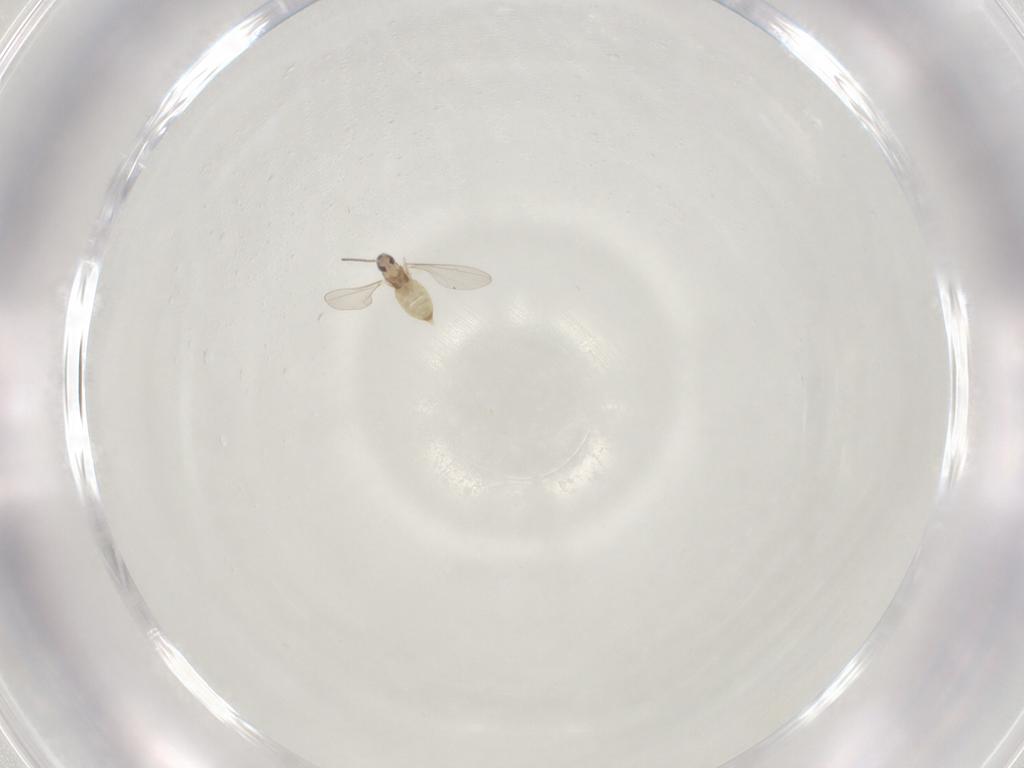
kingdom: Animalia
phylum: Arthropoda
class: Insecta
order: Diptera
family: Cecidomyiidae
